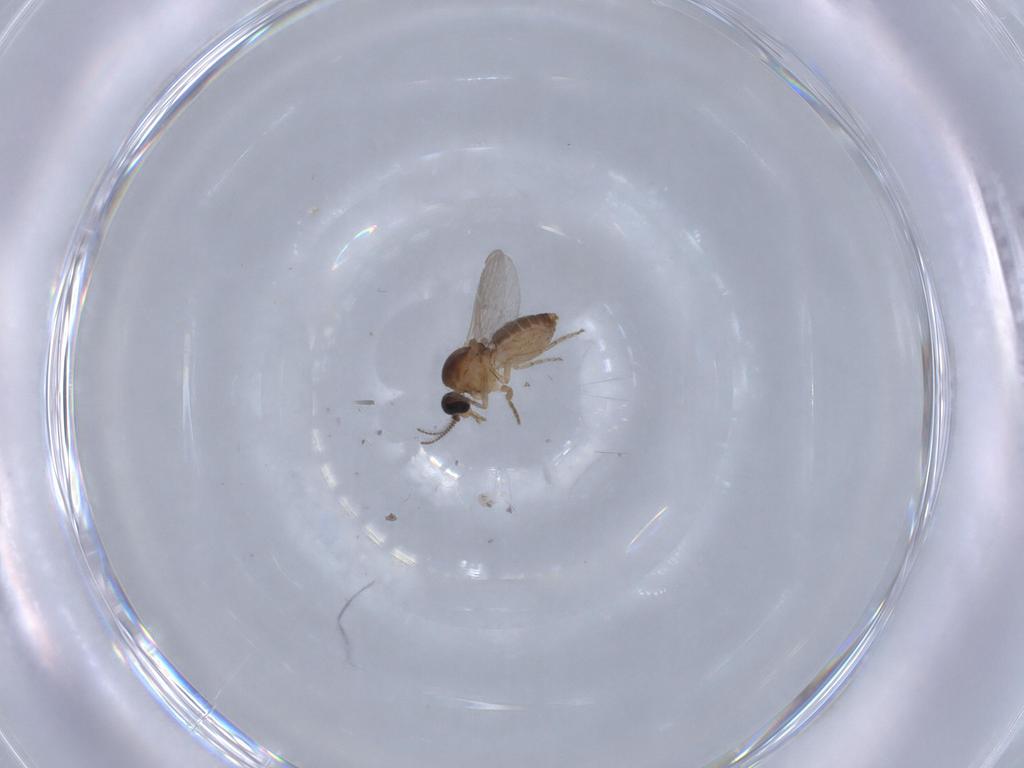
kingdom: Animalia
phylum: Arthropoda
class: Insecta
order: Diptera
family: Ceratopogonidae
